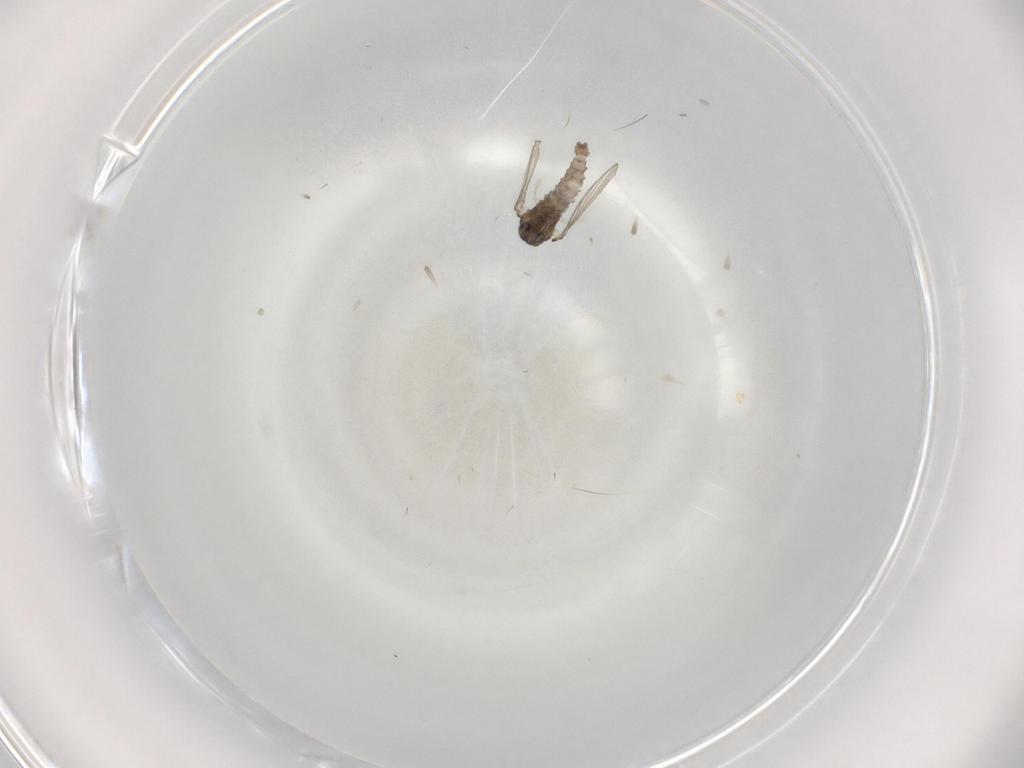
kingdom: Animalia
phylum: Arthropoda
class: Insecta
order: Diptera
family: Psychodidae
